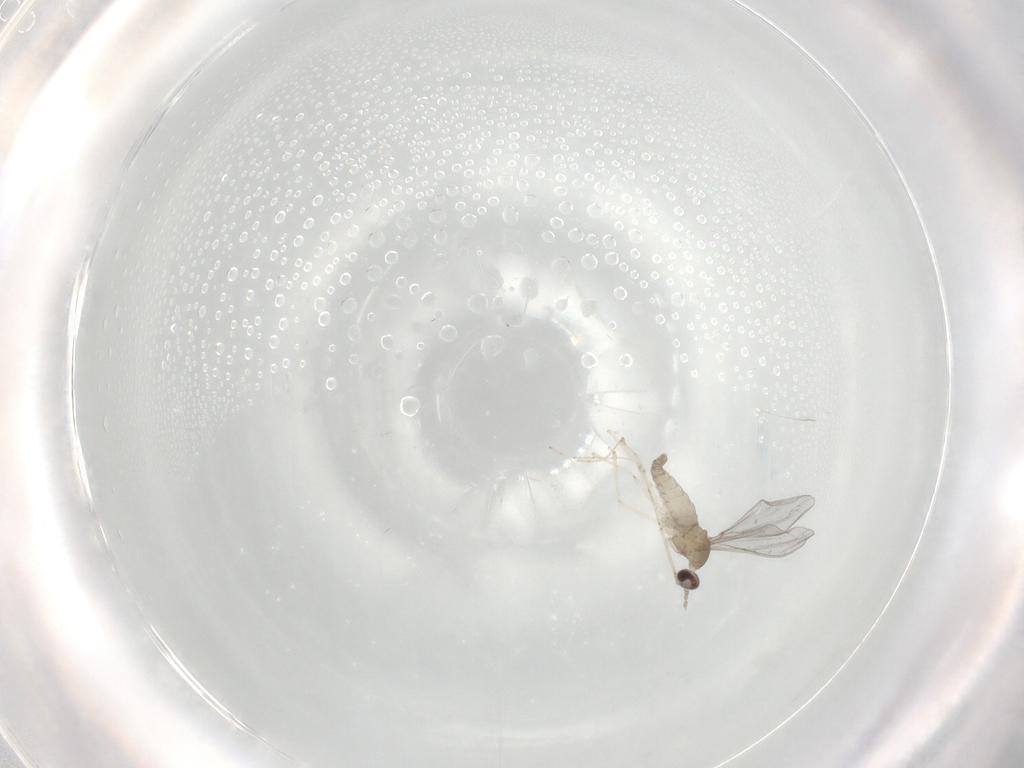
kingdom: Animalia
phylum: Arthropoda
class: Insecta
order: Diptera
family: Cecidomyiidae
